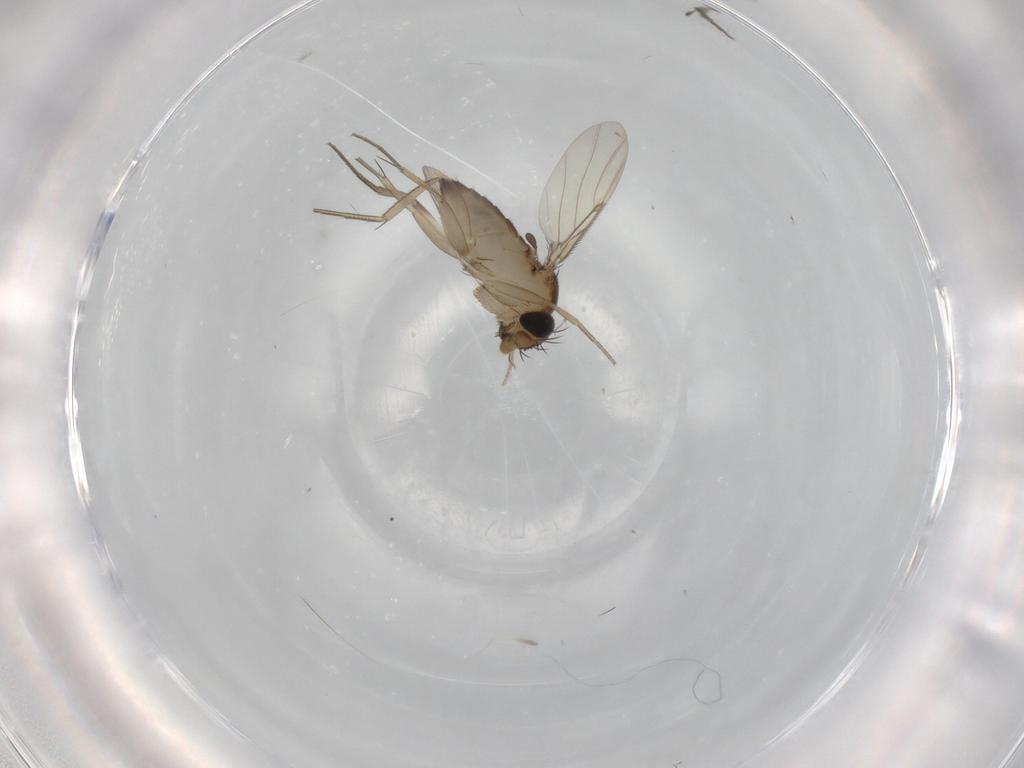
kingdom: Animalia
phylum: Arthropoda
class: Insecta
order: Diptera
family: Phoridae
